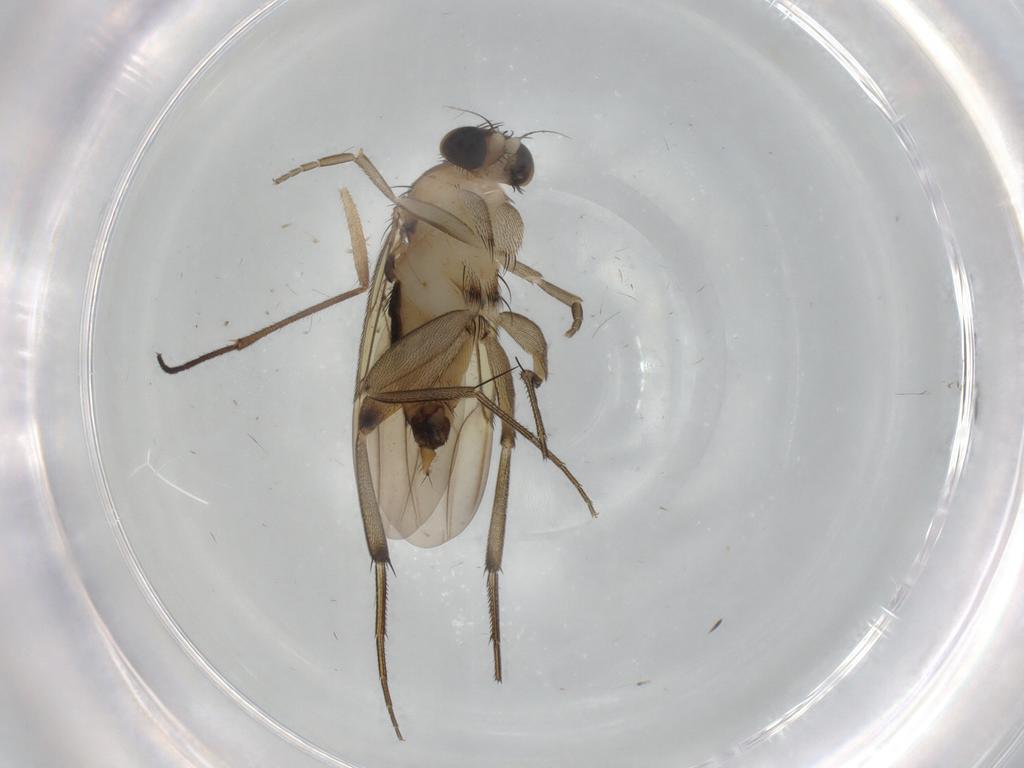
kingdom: Animalia
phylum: Arthropoda
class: Insecta
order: Diptera
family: Cecidomyiidae
